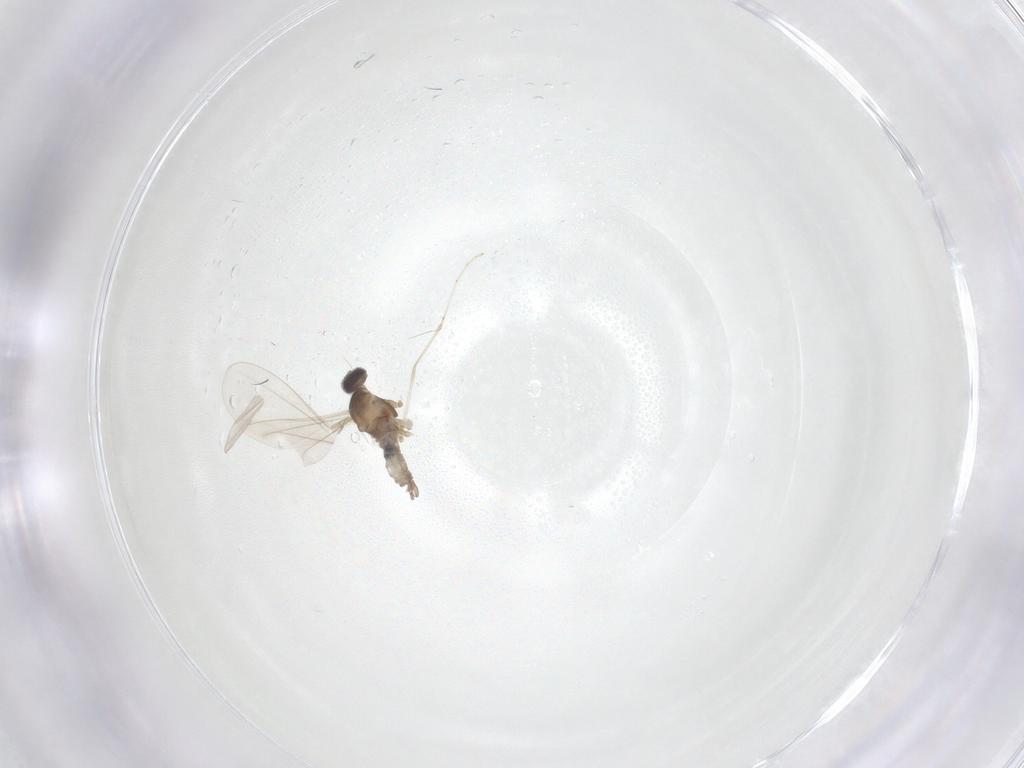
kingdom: Animalia
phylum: Arthropoda
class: Insecta
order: Diptera
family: Cecidomyiidae
